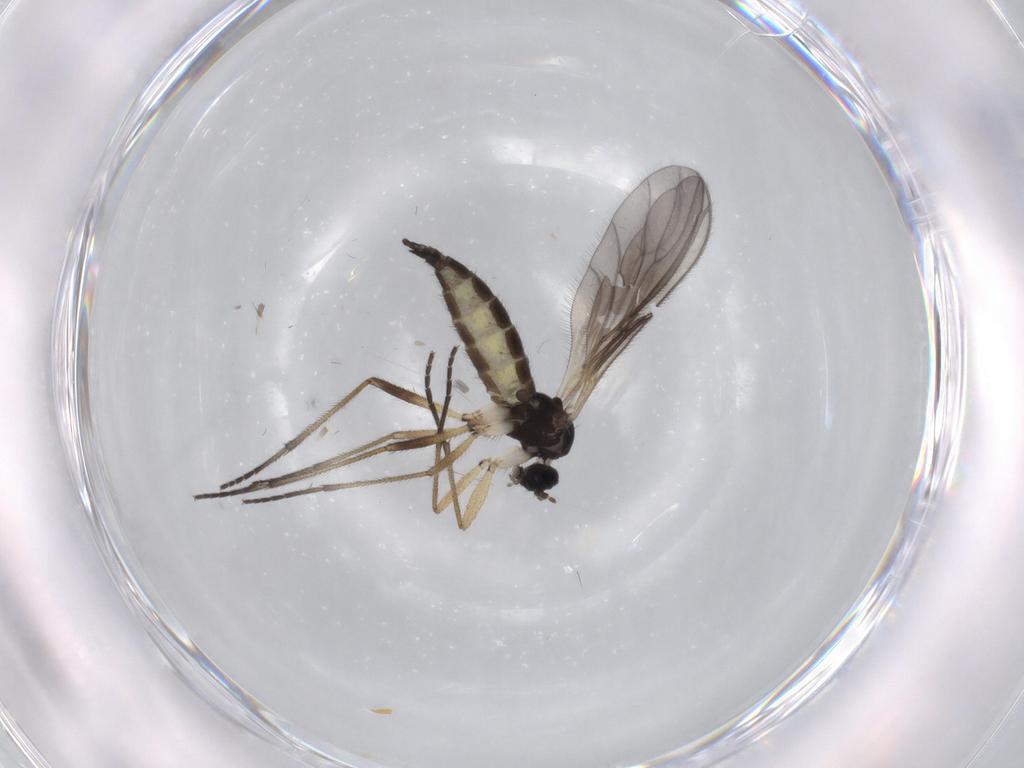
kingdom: Animalia
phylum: Arthropoda
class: Insecta
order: Diptera
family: Sciaridae
